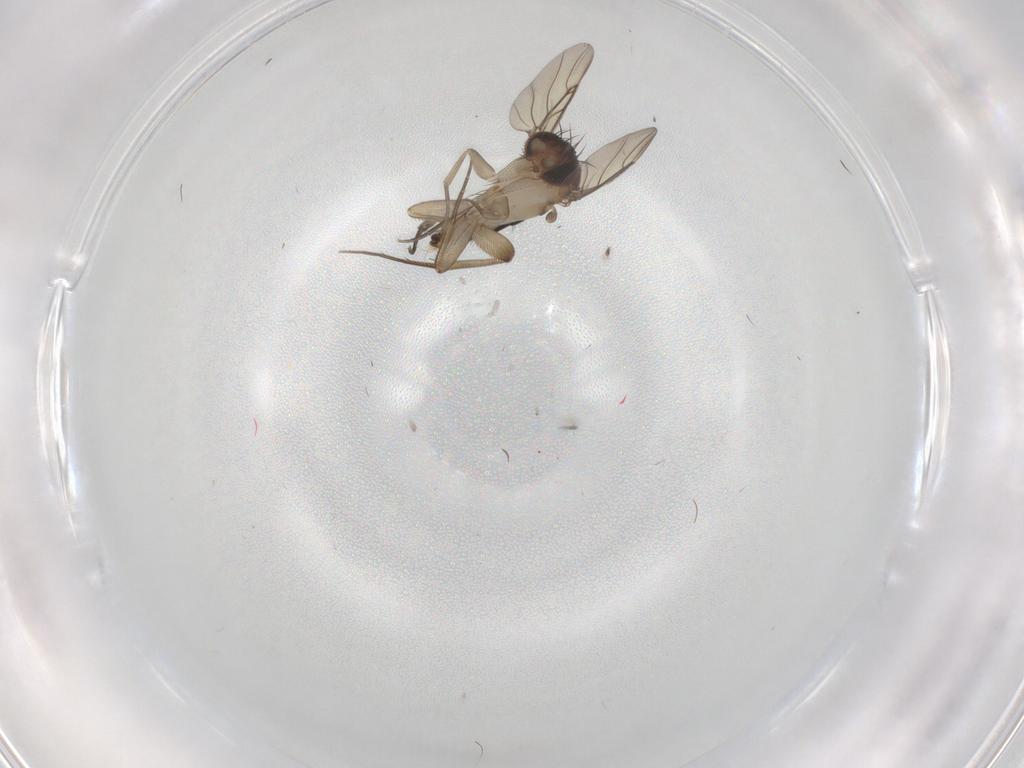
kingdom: Animalia
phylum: Arthropoda
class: Insecta
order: Diptera
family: Phoridae
